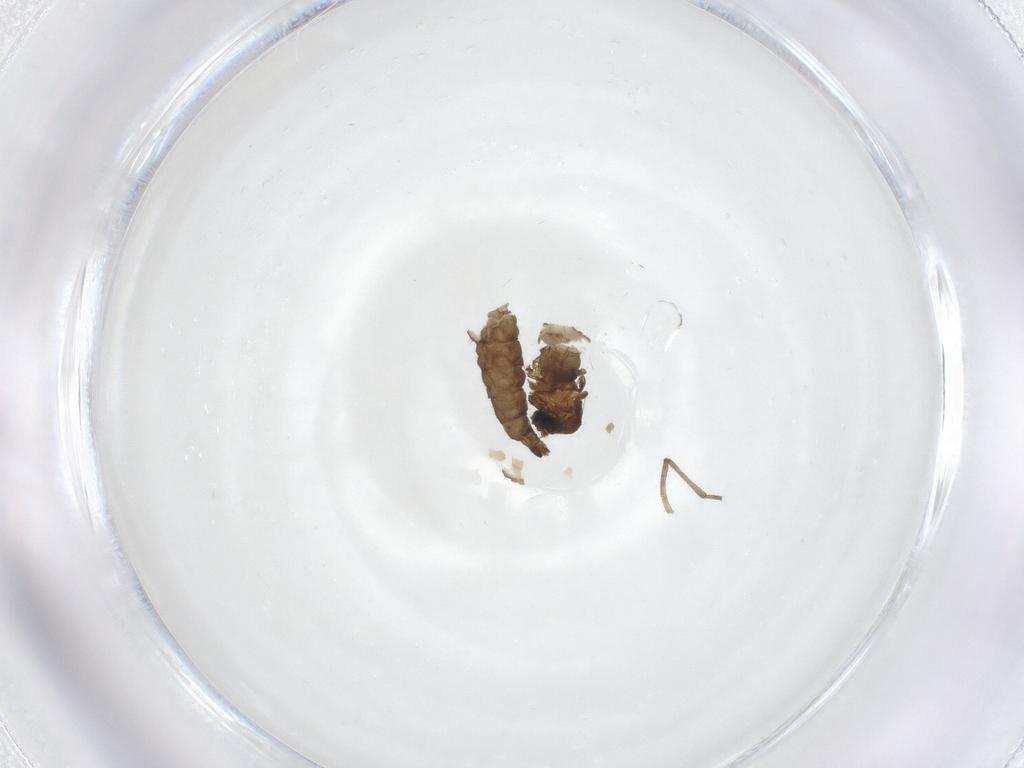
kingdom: Animalia
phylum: Arthropoda
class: Insecta
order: Diptera
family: Sciaridae
